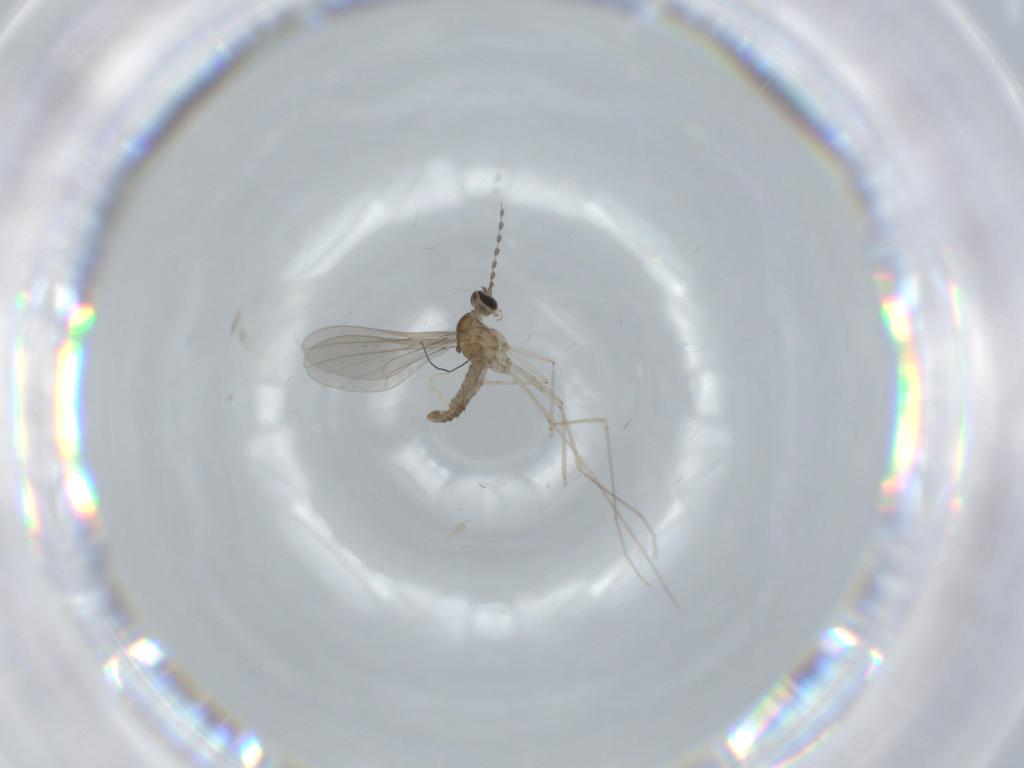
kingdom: Animalia
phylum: Arthropoda
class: Insecta
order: Diptera
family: Cecidomyiidae
